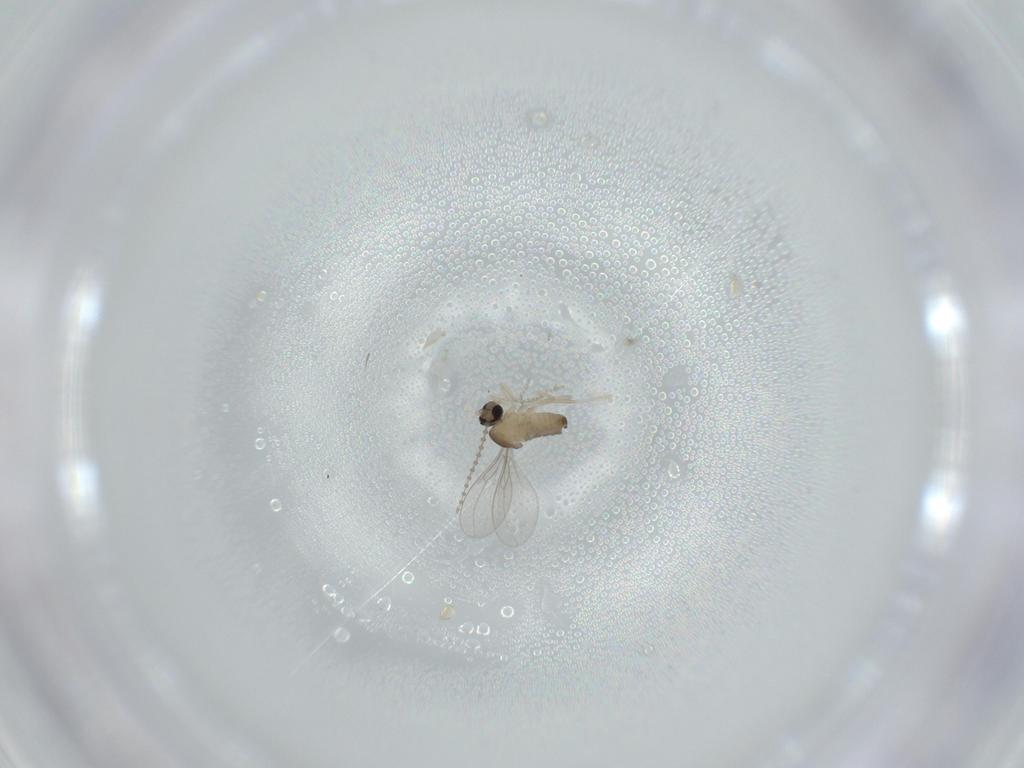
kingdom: Animalia
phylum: Arthropoda
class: Insecta
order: Diptera
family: Cecidomyiidae
